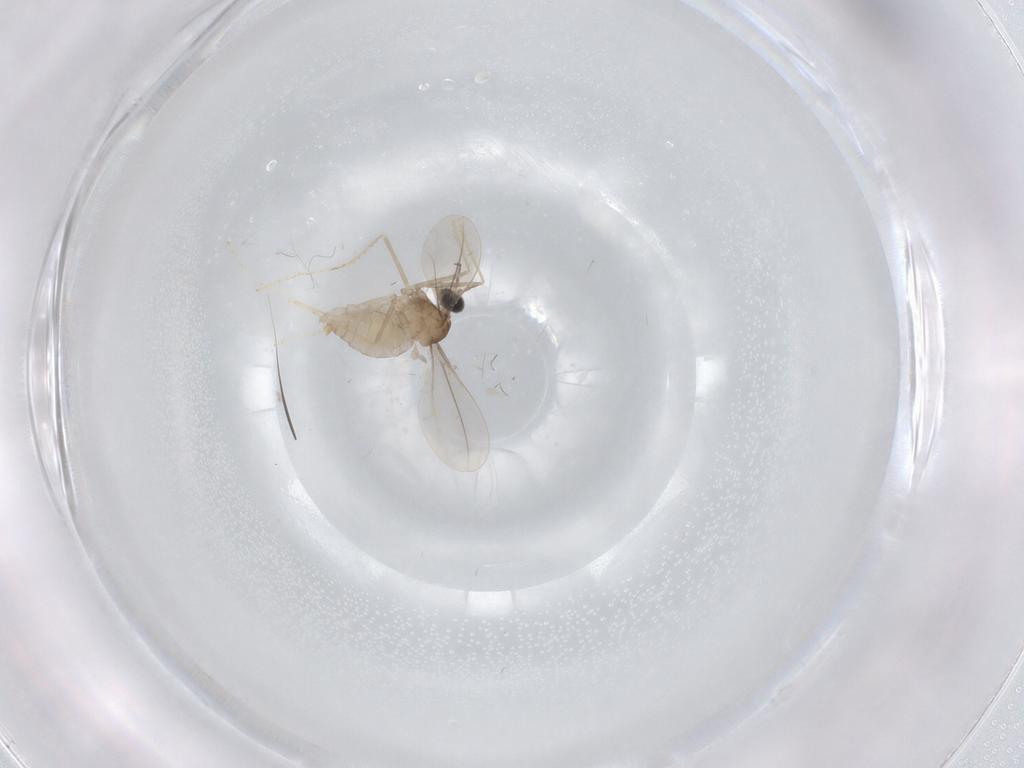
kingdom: Animalia
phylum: Arthropoda
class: Insecta
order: Diptera
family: Cecidomyiidae
